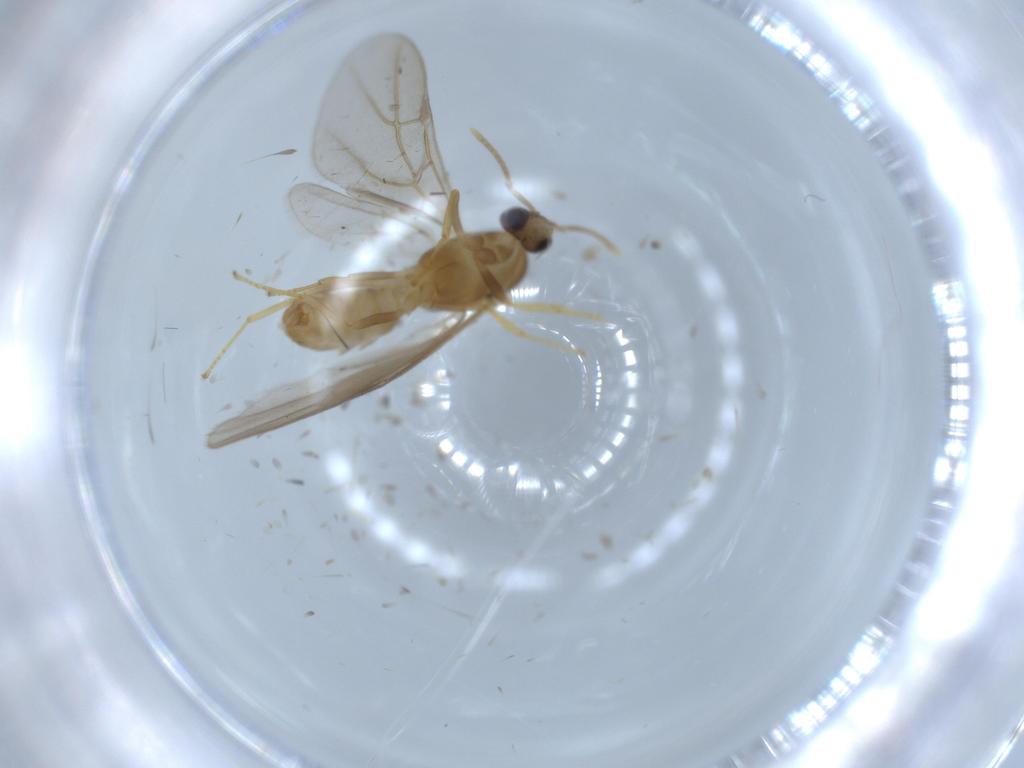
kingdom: Animalia
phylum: Arthropoda
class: Insecta
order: Hymenoptera
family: Formicidae
